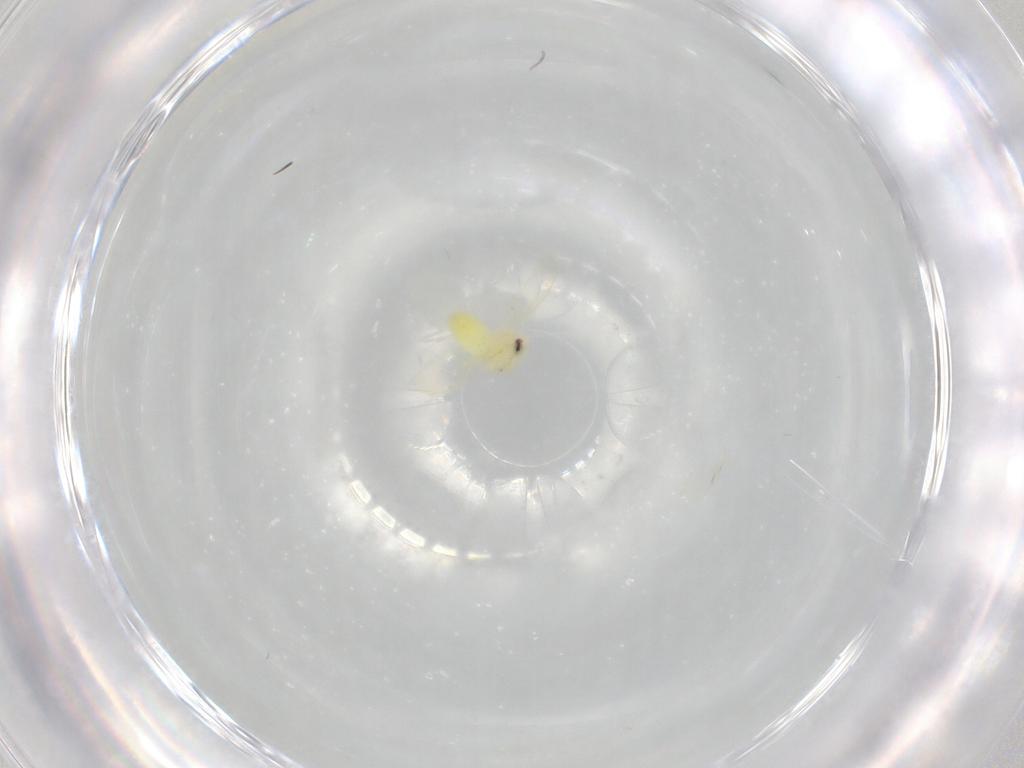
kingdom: Animalia
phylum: Arthropoda
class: Insecta
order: Hemiptera
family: Aleyrodidae
